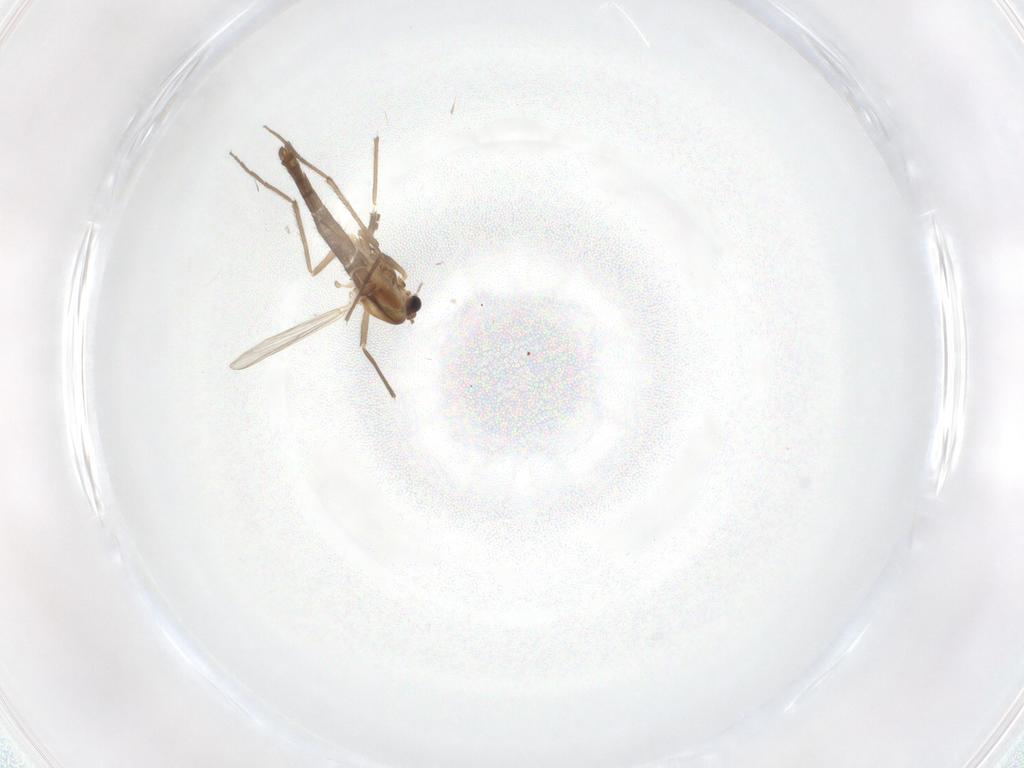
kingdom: Animalia
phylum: Arthropoda
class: Insecta
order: Diptera
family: Chironomidae
